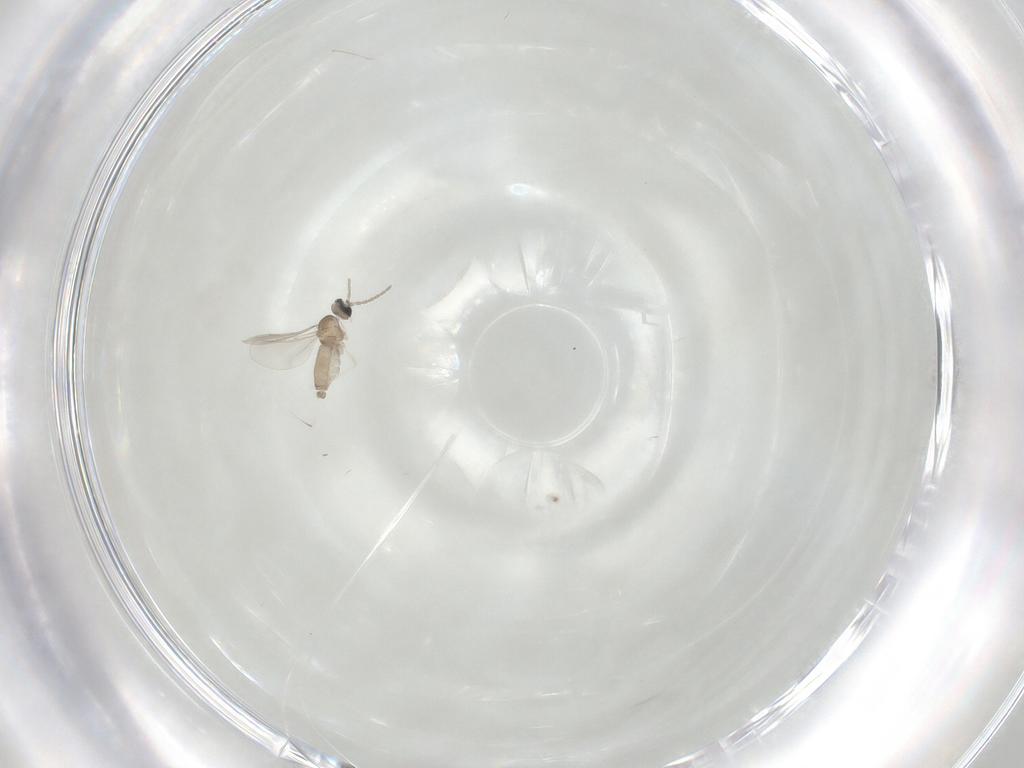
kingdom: Animalia
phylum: Arthropoda
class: Insecta
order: Diptera
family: Cecidomyiidae
